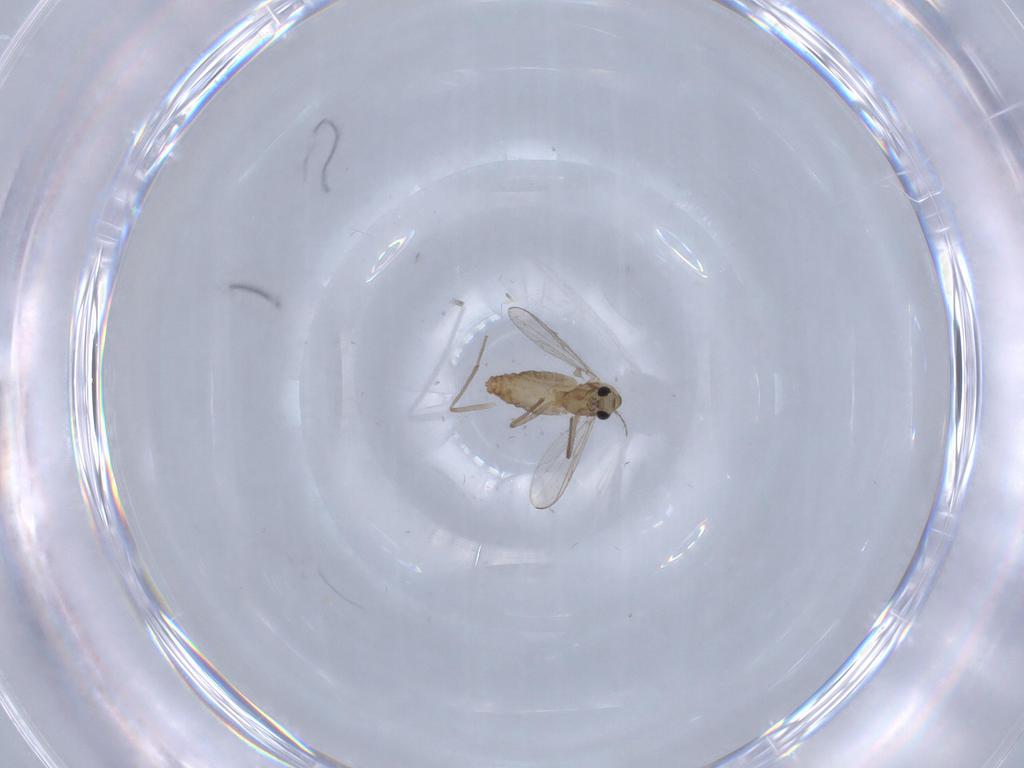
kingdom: Animalia
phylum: Arthropoda
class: Insecta
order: Diptera
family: Chironomidae
